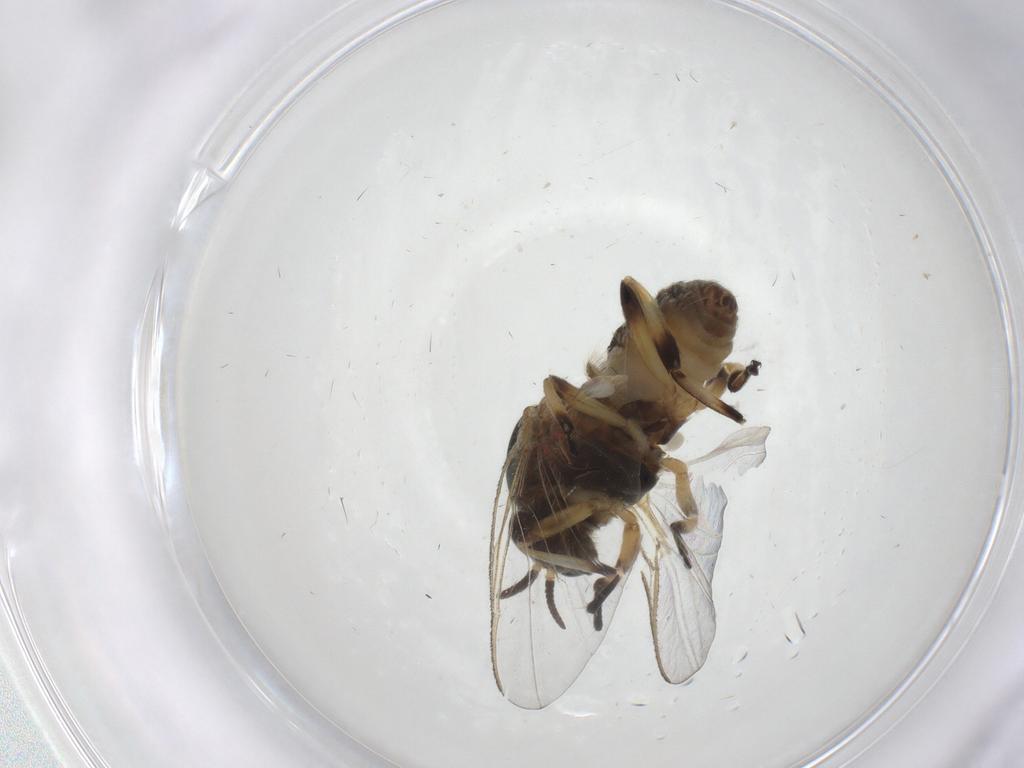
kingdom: Animalia
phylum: Arthropoda
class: Insecta
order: Diptera
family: Simuliidae
